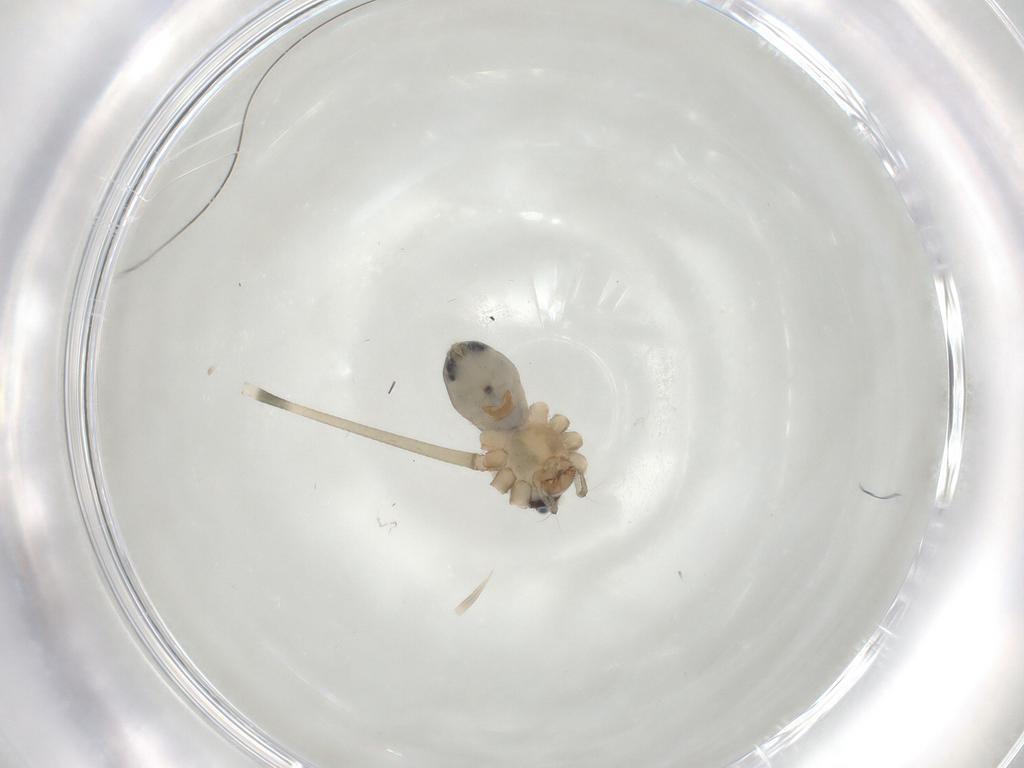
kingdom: Animalia
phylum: Arthropoda
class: Arachnida
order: Araneae
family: Pholcidae
